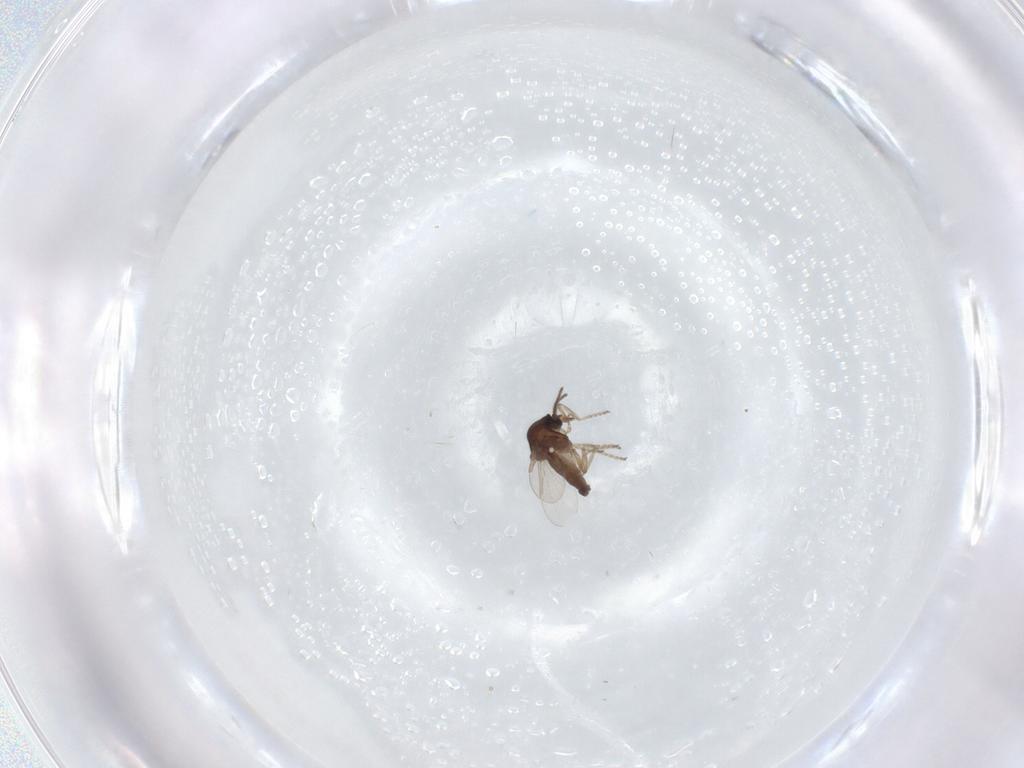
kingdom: Animalia
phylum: Arthropoda
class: Insecta
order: Diptera
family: Ceratopogonidae
